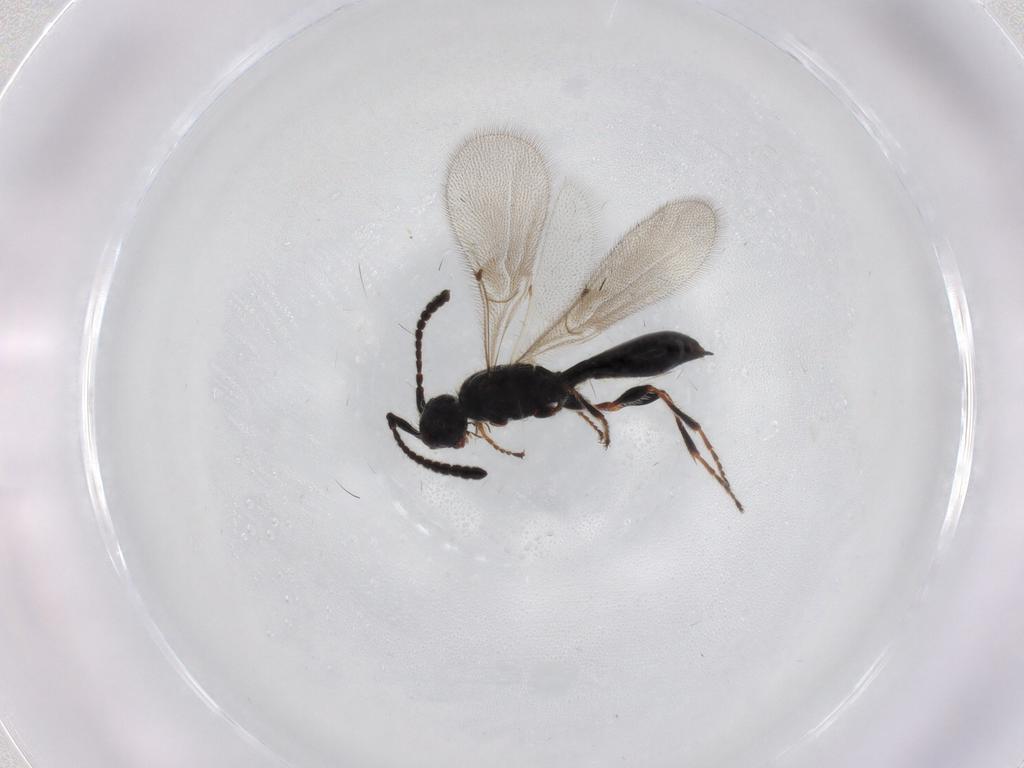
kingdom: Animalia
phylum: Arthropoda
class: Insecta
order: Hymenoptera
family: Diapriidae
